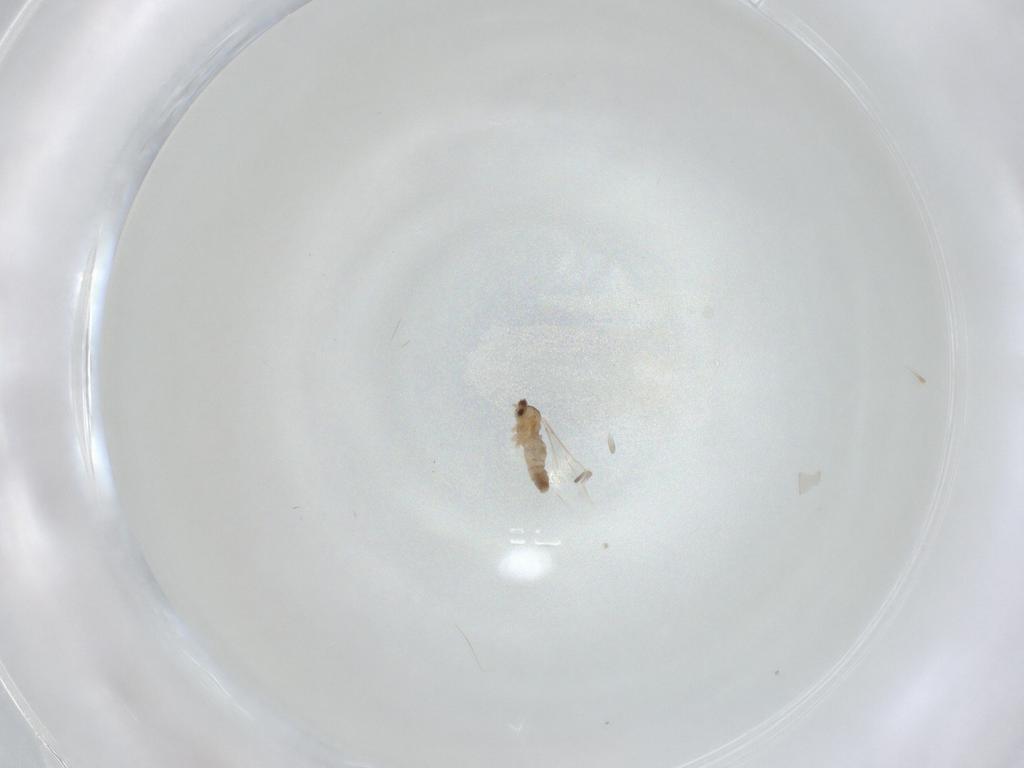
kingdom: Animalia
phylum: Arthropoda
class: Insecta
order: Diptera
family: Cecidomyiidae
